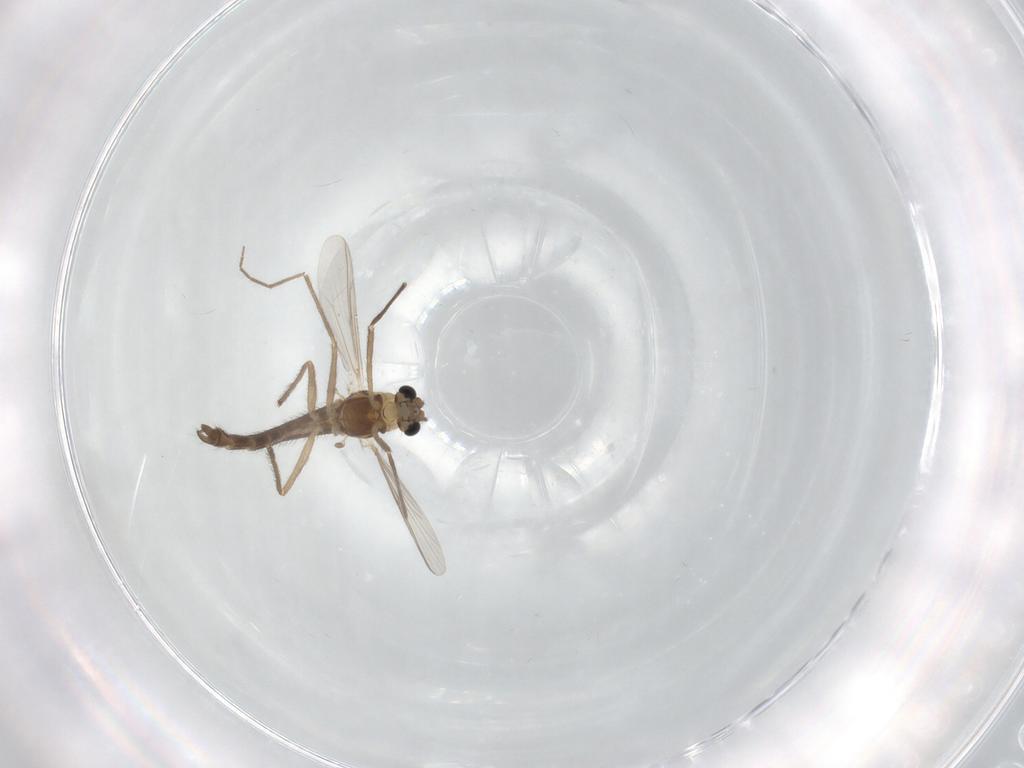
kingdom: Animalia
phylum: Arthropoda
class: Insecta
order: Diptera
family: Chironomidae
